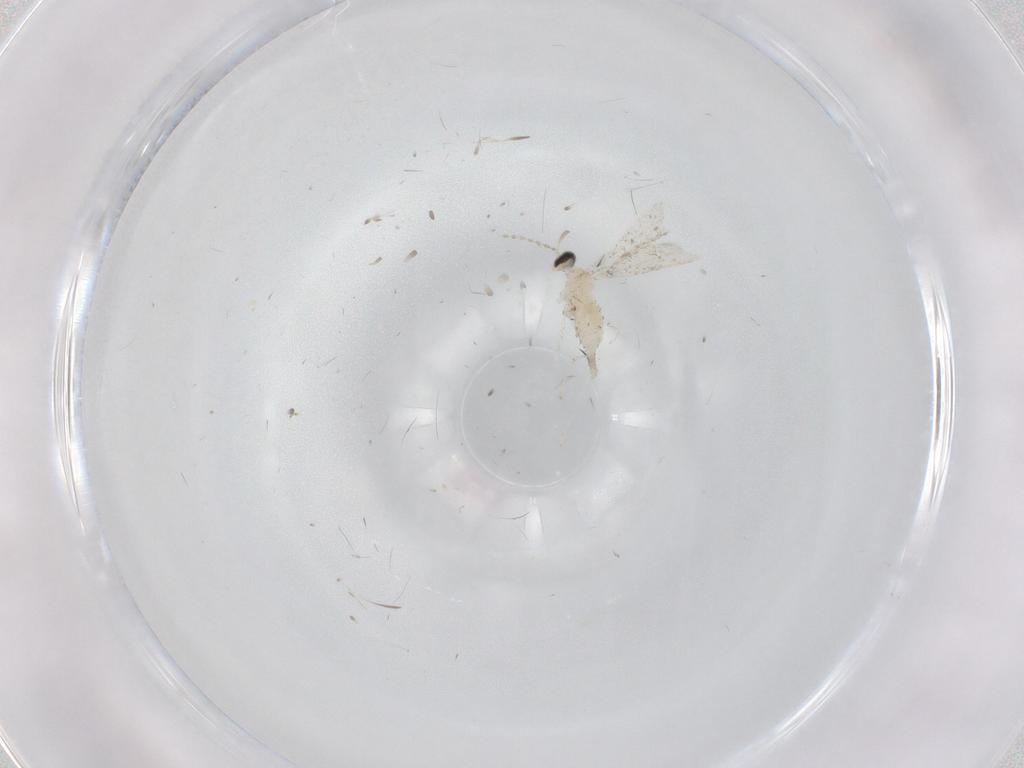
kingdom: Animalia
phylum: Arthropoda
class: Insecta
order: Diptera
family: Cecidomyiidae
